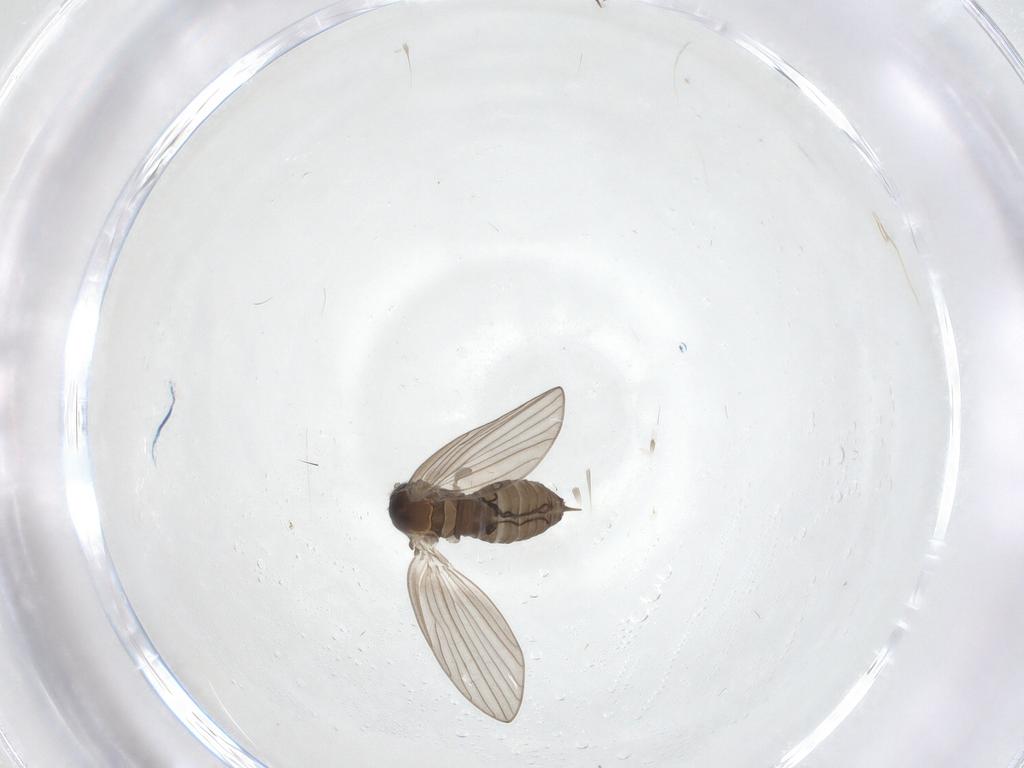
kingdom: Animalia
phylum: Arthropoda
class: Insecta
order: Diptera
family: Psychodidae
